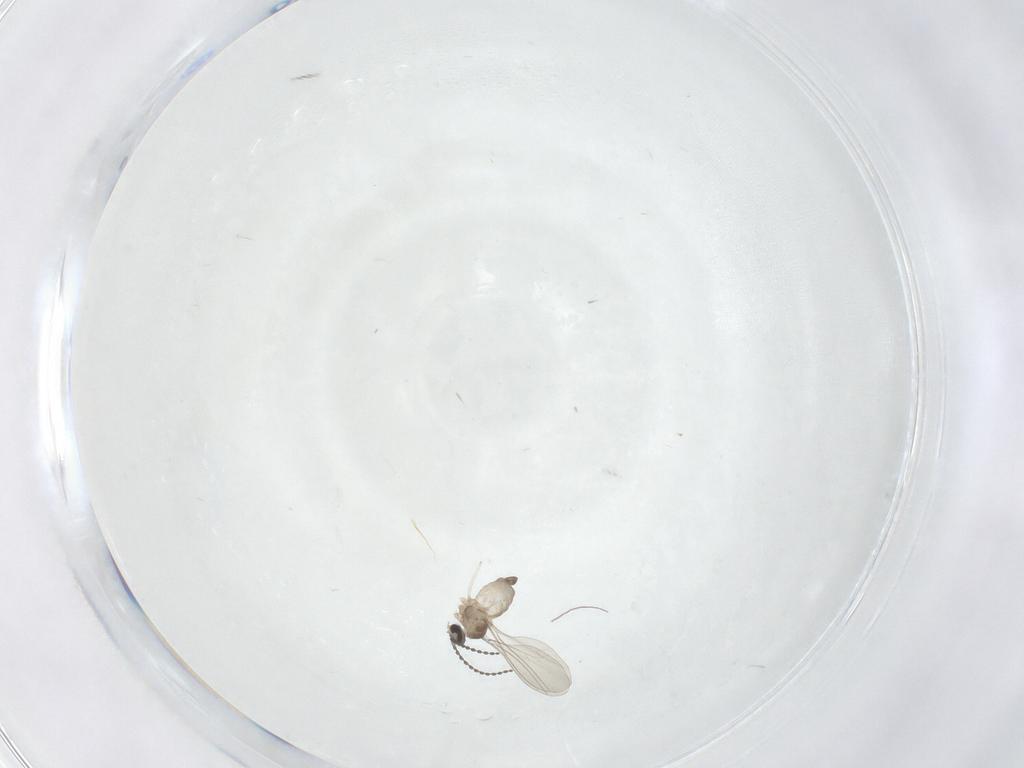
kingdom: Animalia
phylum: Arthropoda
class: Insecta
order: Diptera
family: Cecidomyiidae
